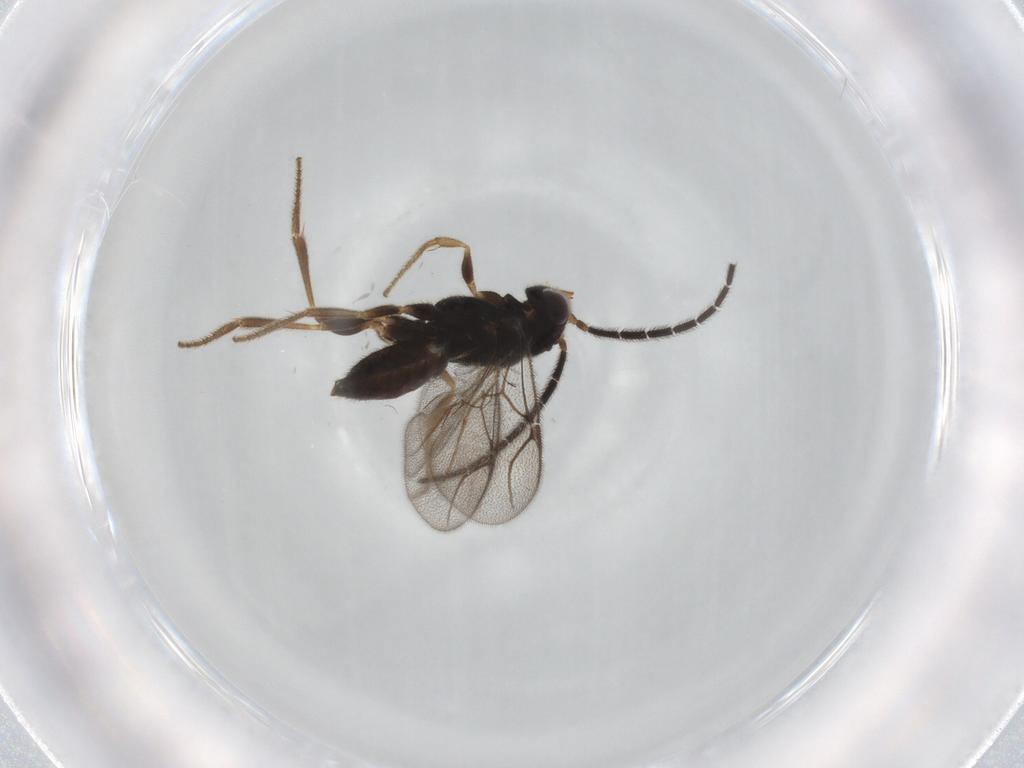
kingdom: Animalia
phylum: Arthropoda
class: Insecta
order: Hymenoptera
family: Dryinidae
